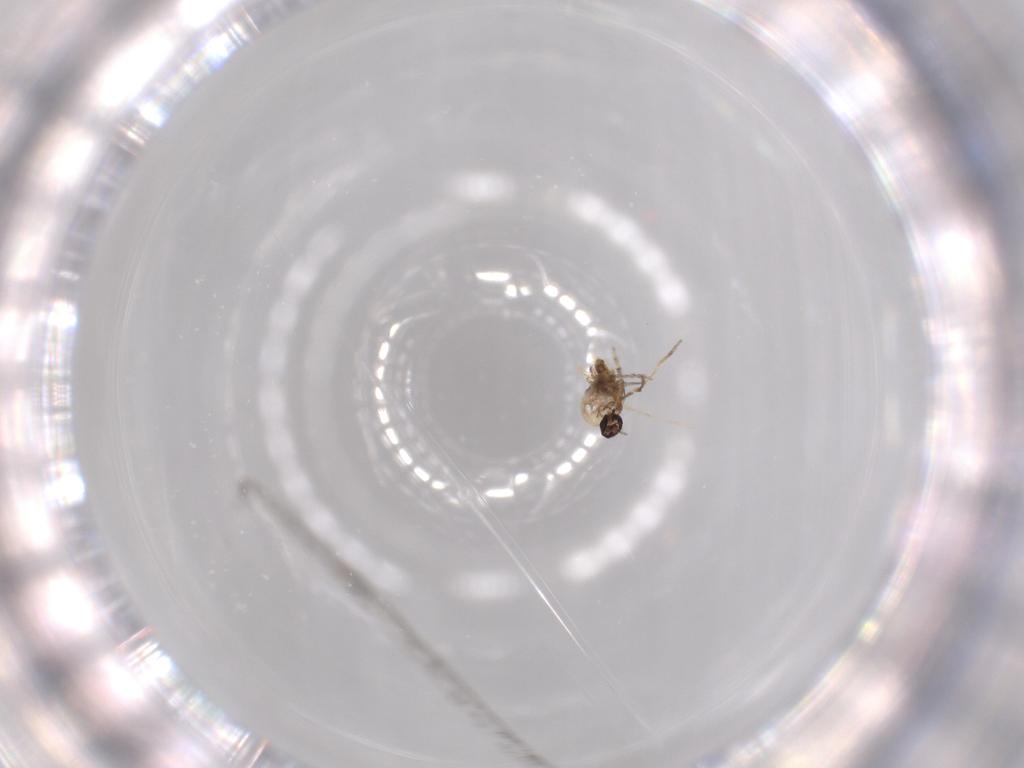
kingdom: Animalia
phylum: Arthropoda
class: Insecta
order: Diptera
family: Ceratopogonidae
